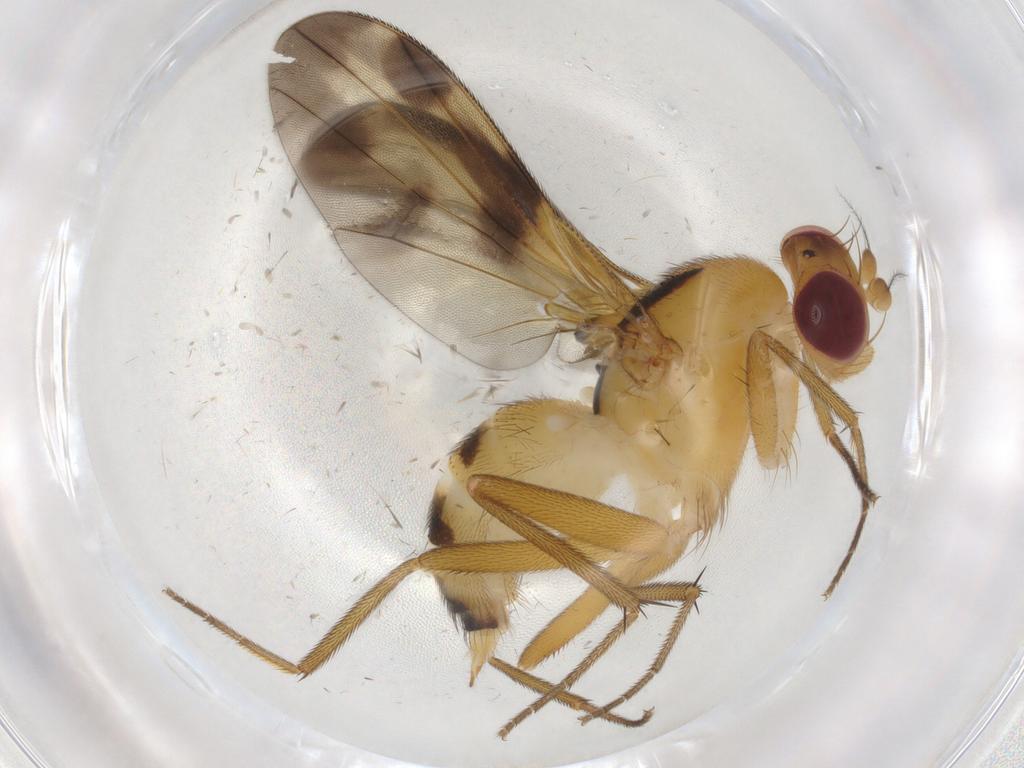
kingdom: Animalia
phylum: Arthropoda
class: Insecta
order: Diptera
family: Clusiidae
